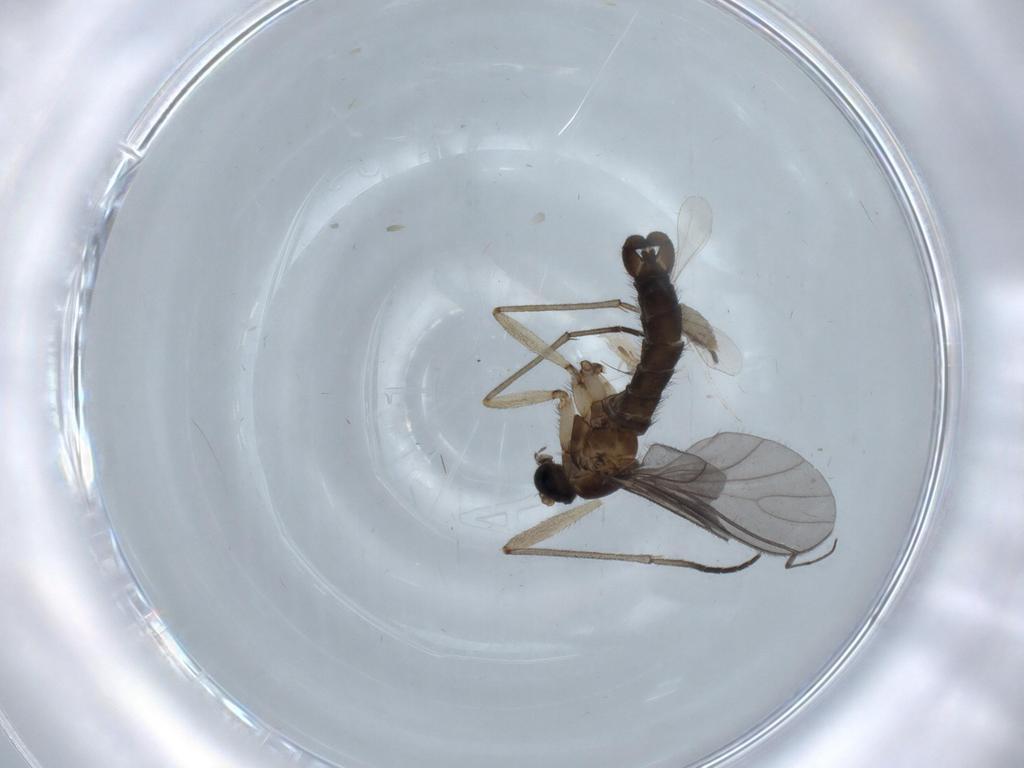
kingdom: Animalia
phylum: Arthropoda
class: Insecta
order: Diptera
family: Sciaridae
